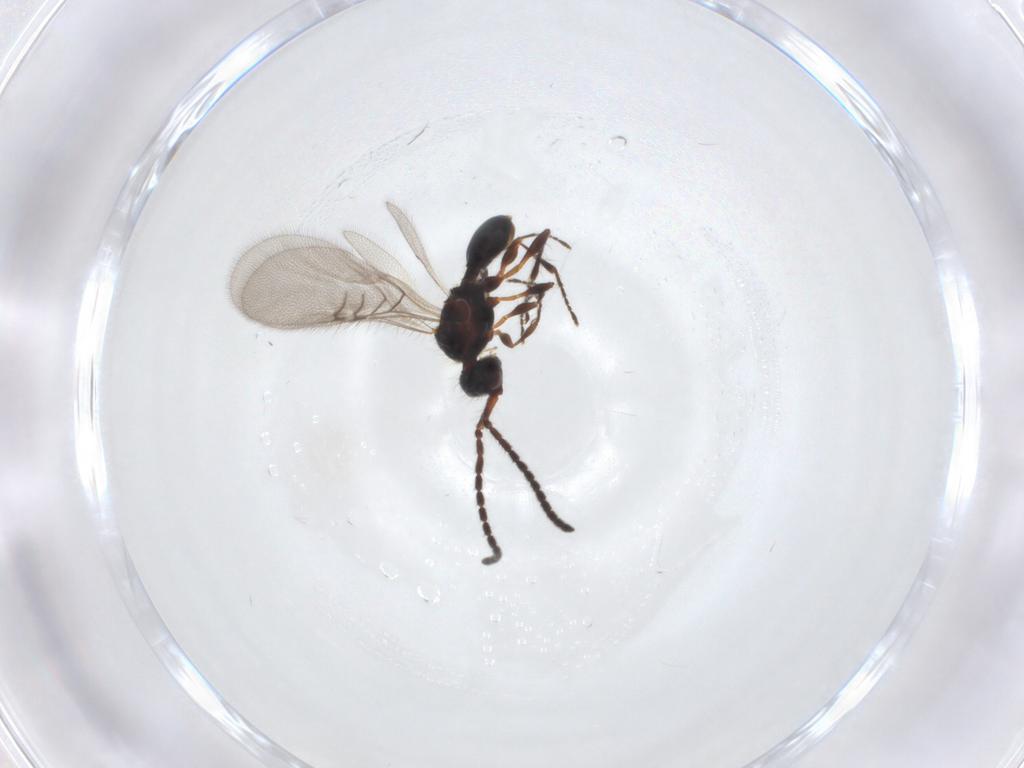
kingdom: Animalia
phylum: Arthropoda
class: Insecta
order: Hymenoptera
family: Diapriidae
